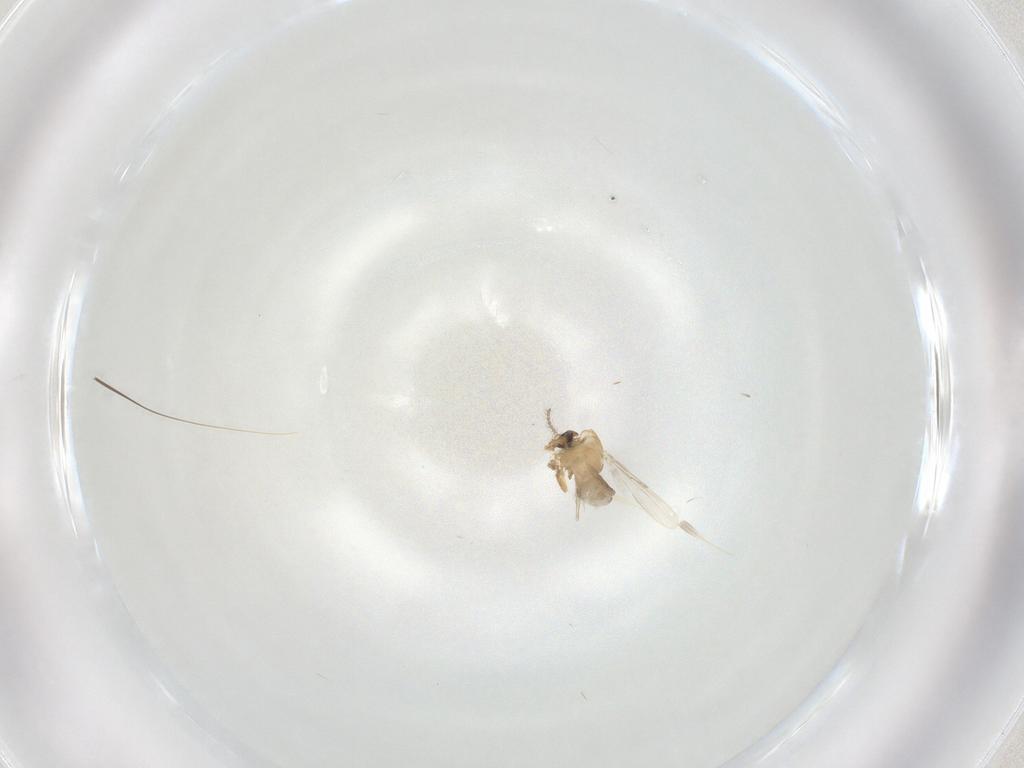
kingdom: Animalia
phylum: Arthropoda
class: Insecta
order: Diptera
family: Ceratopogonidae
